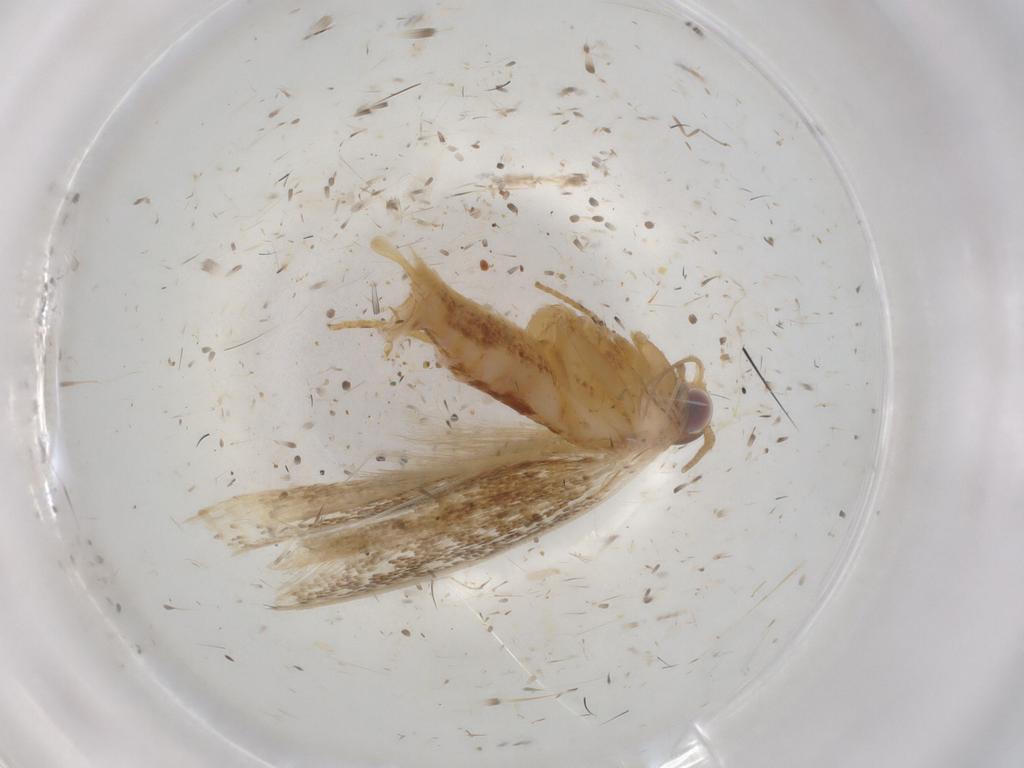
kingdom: Animalia
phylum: Arthropoda
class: Insecta
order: Lepidoptera
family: Gelechiidae
